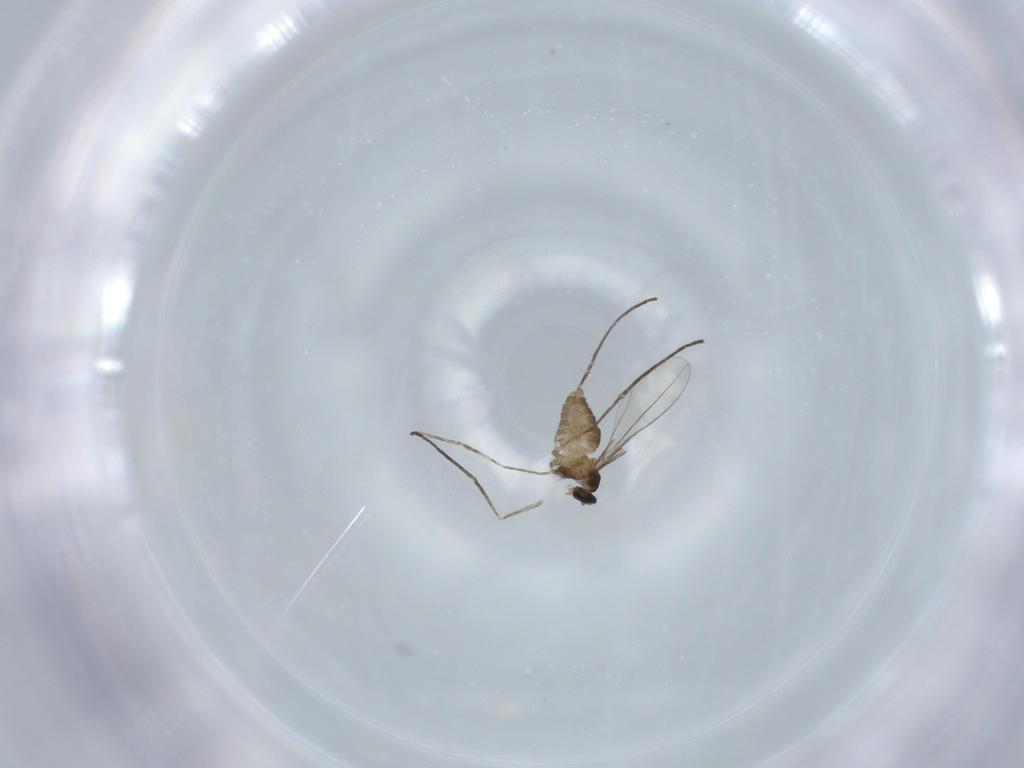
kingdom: Animalia
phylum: Arthropoda
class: Insecta
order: Diptera
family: Cecidomyiidae
